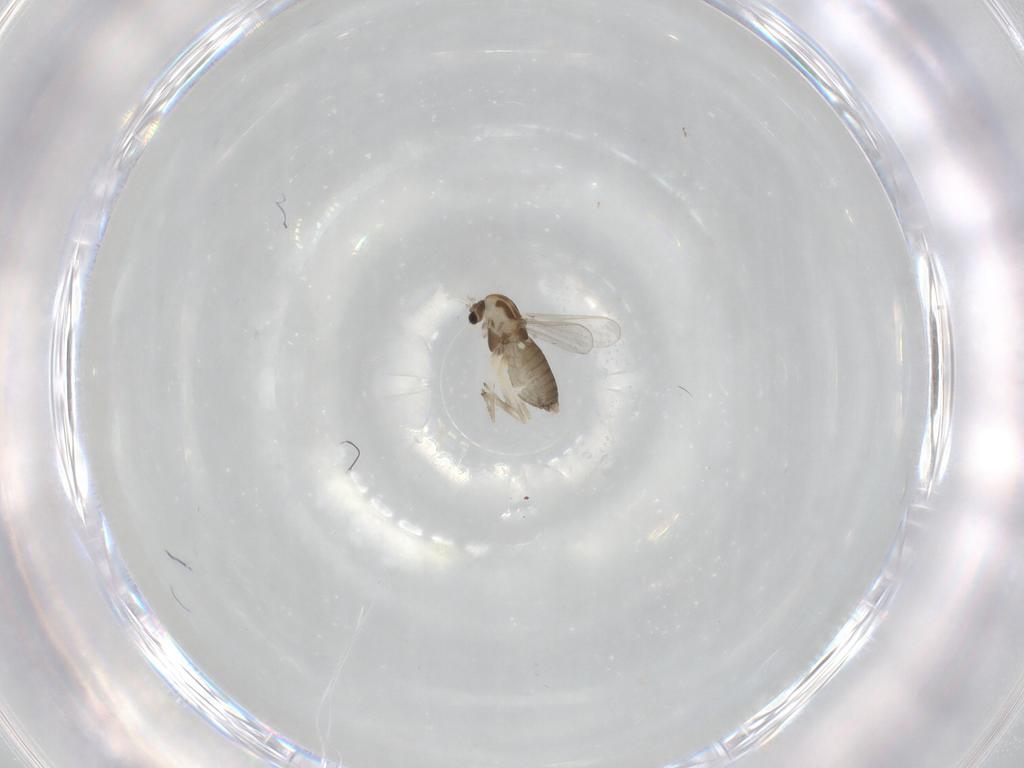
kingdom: Animalia
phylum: Arthropoda
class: Insecta
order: Diptera
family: Chironomidae
